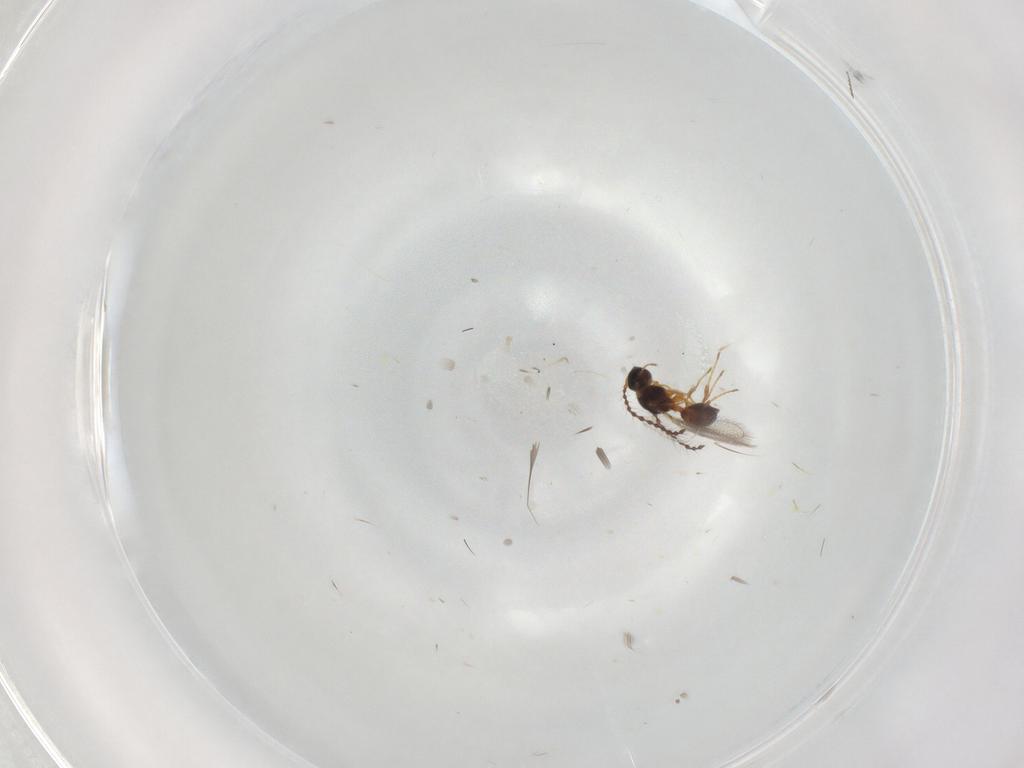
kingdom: Animalia
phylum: Arthropoda
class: Insecta
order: Hymenoptera
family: Diapriidae
